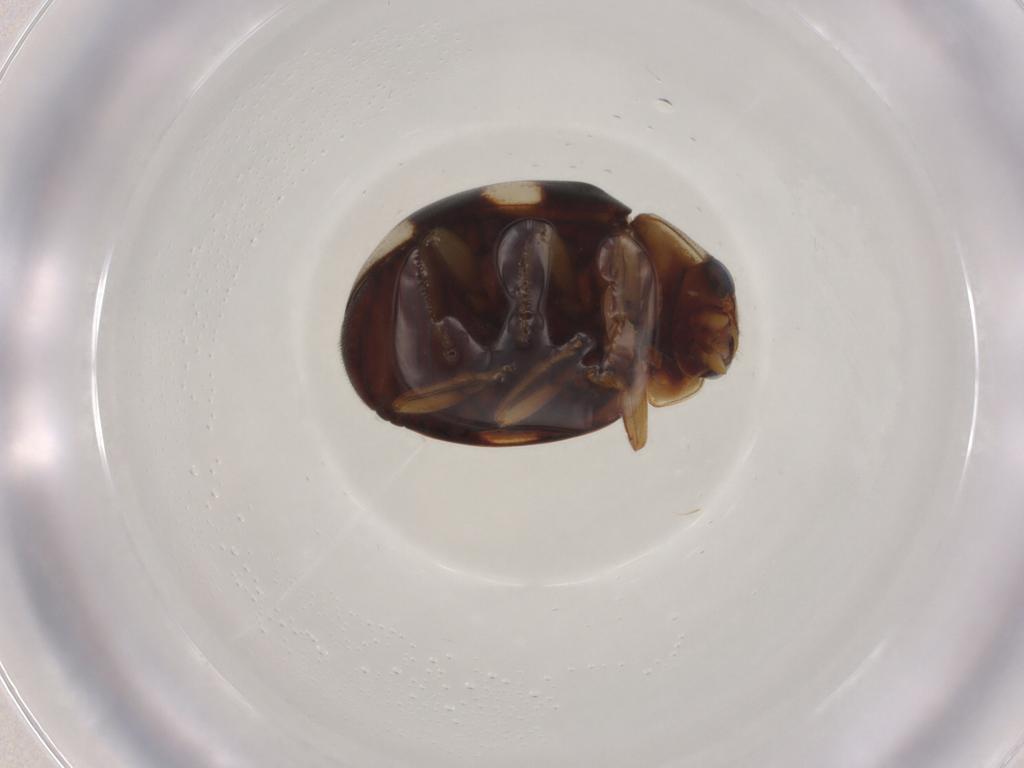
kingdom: Animalia
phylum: Arthropoda
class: Insecta
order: Coleoptera
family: Coccinellidae
